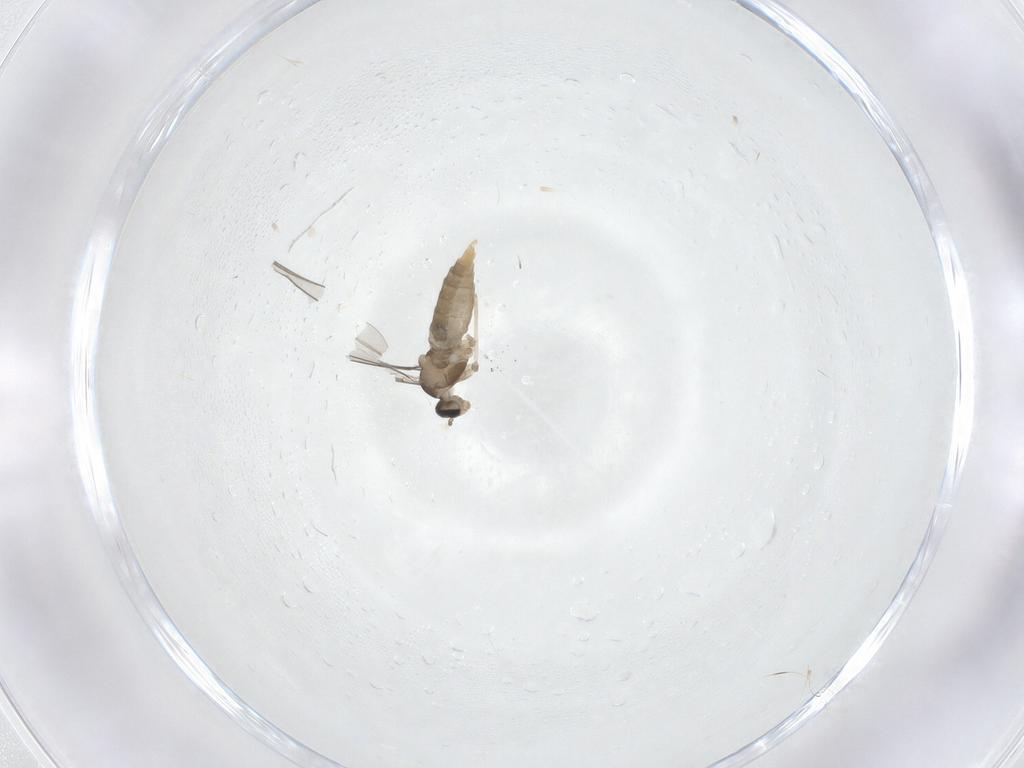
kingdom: Animalia
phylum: Arthropoda
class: Insecta
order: Diptera
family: Cecidomyiidae
